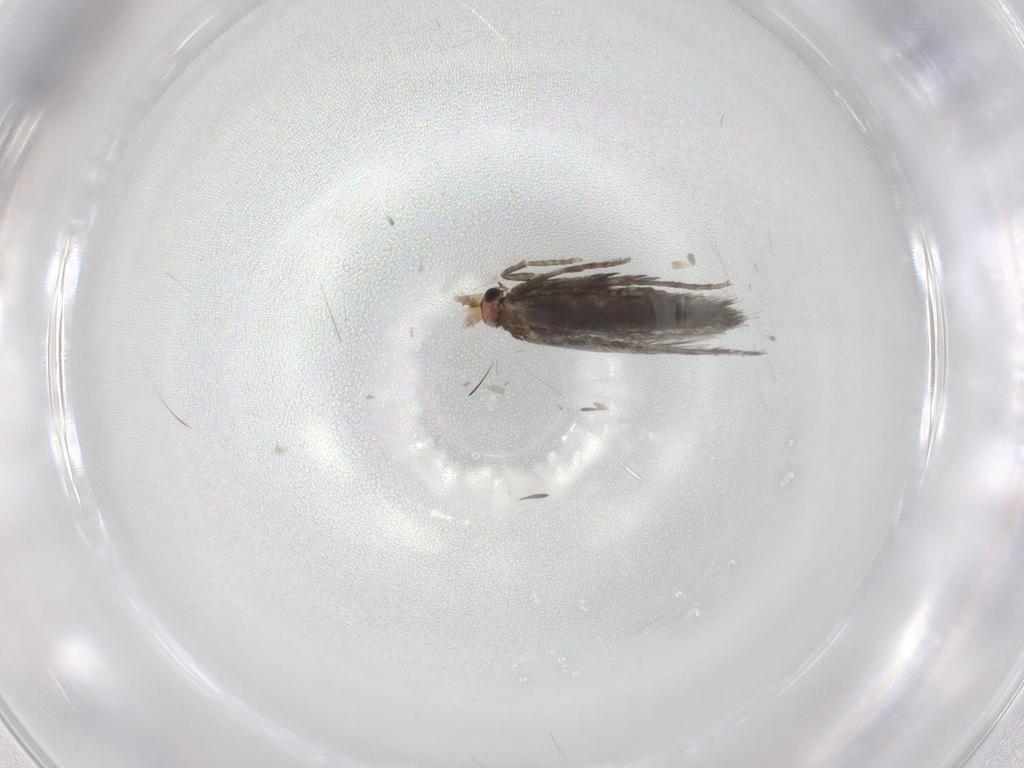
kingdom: Animalia
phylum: Arthropoda
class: Insecta
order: Lepidoptera
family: Nepticulidae
